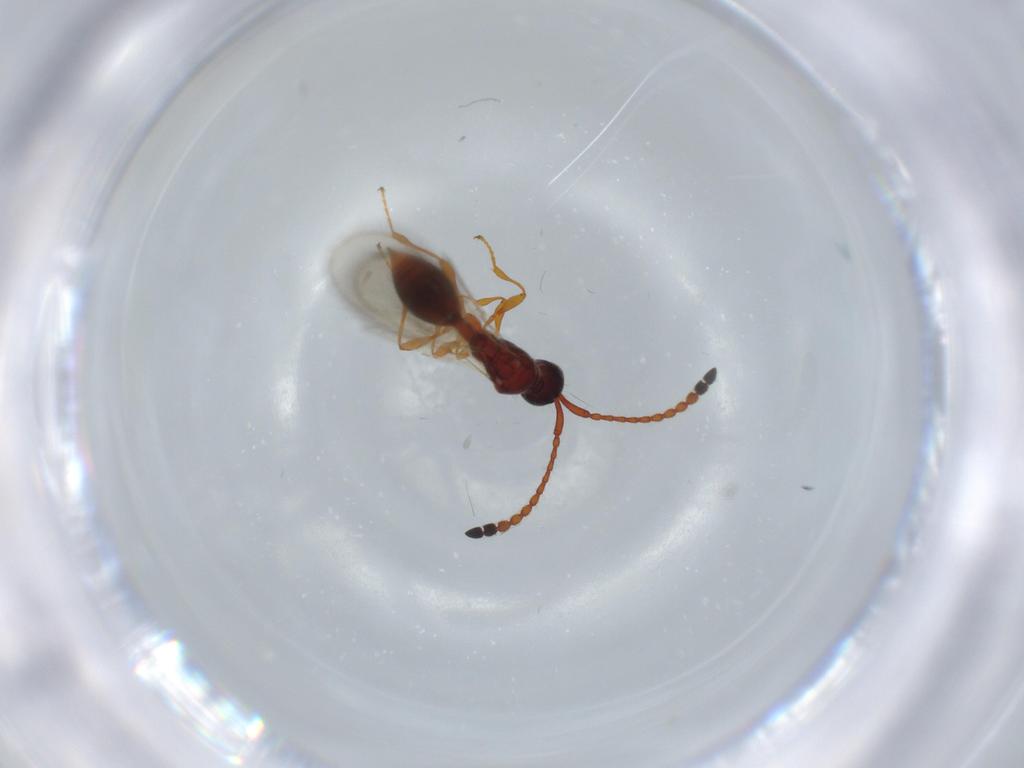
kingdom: Animalia
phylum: Arthropoda
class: Insecta
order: Hymenoptera
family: Diapriidae
